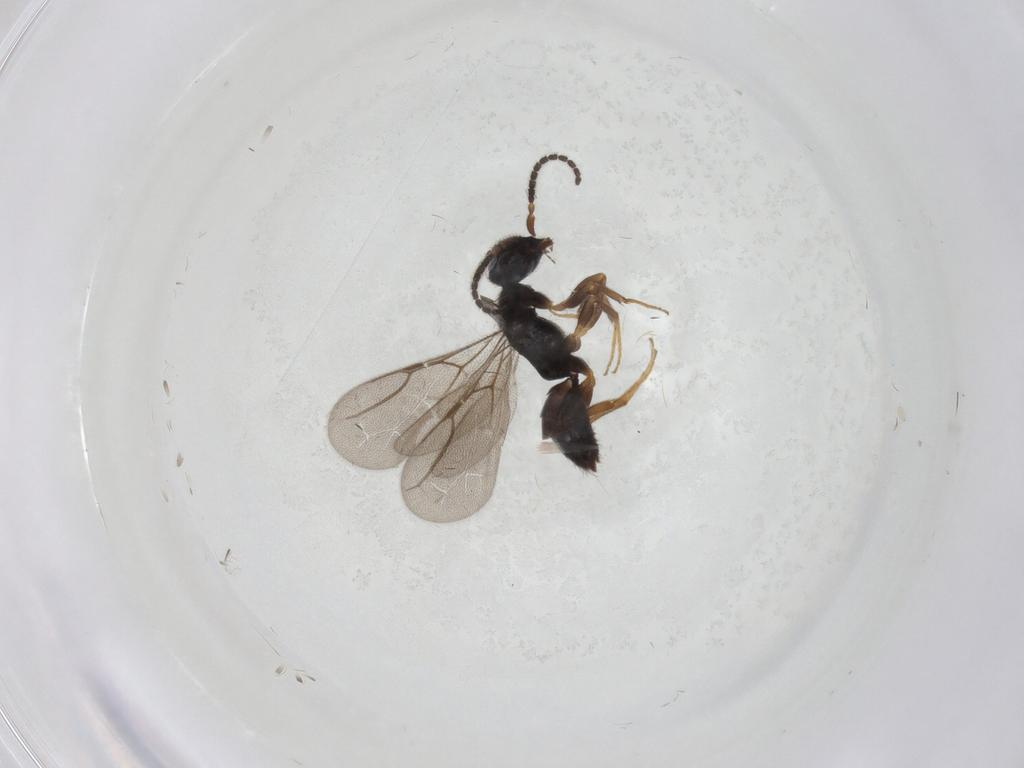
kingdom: Animalia
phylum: Arthropoda
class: Insecta
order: Hymenoptera
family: Bethylidae
